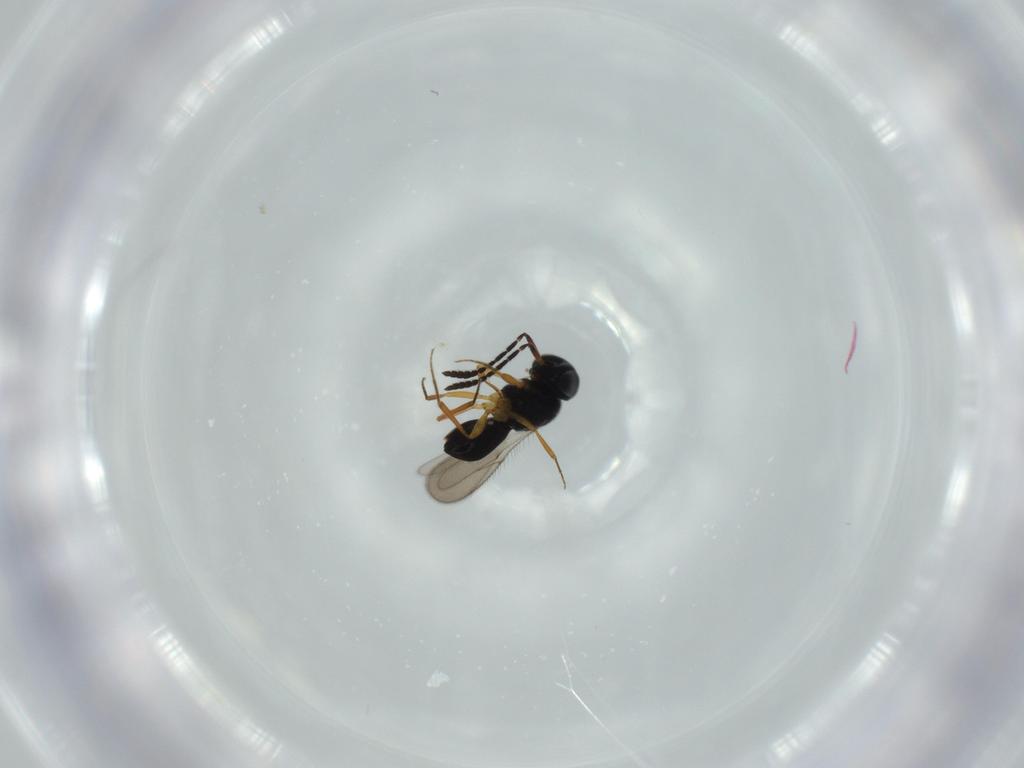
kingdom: Animalia
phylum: Arthropoda
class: Insecta
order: Hymenoptera
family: Scelionidae
